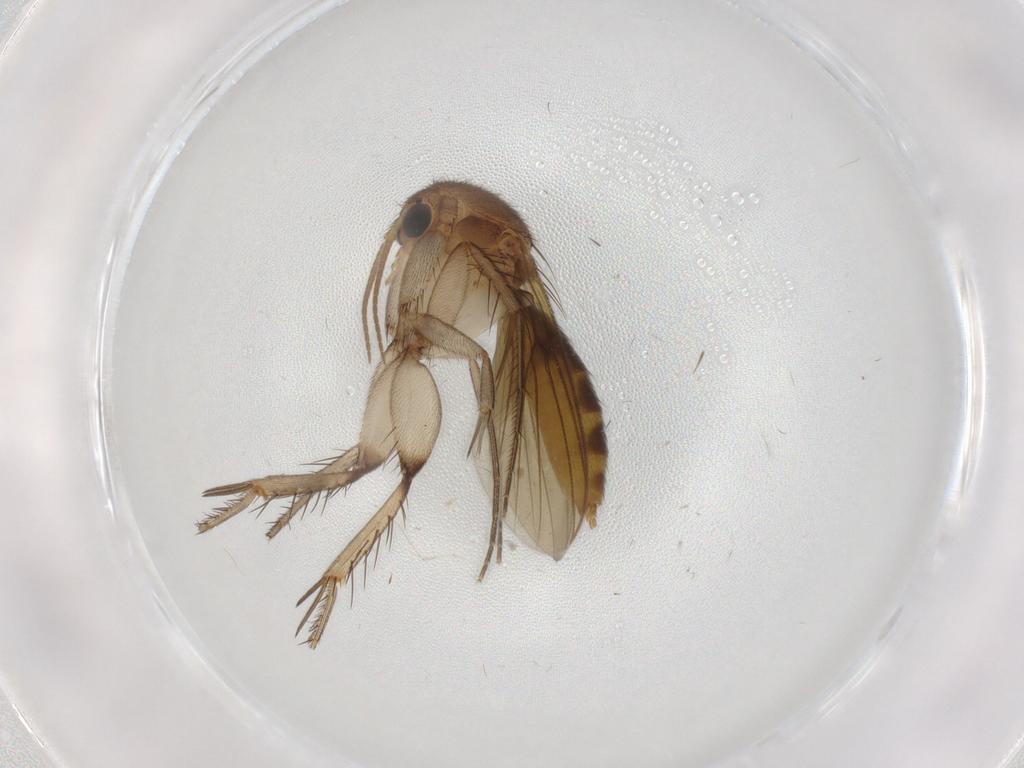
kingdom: Animalia
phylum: Arthropoda
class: Insecta
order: Diptera
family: Mycetophilidae
